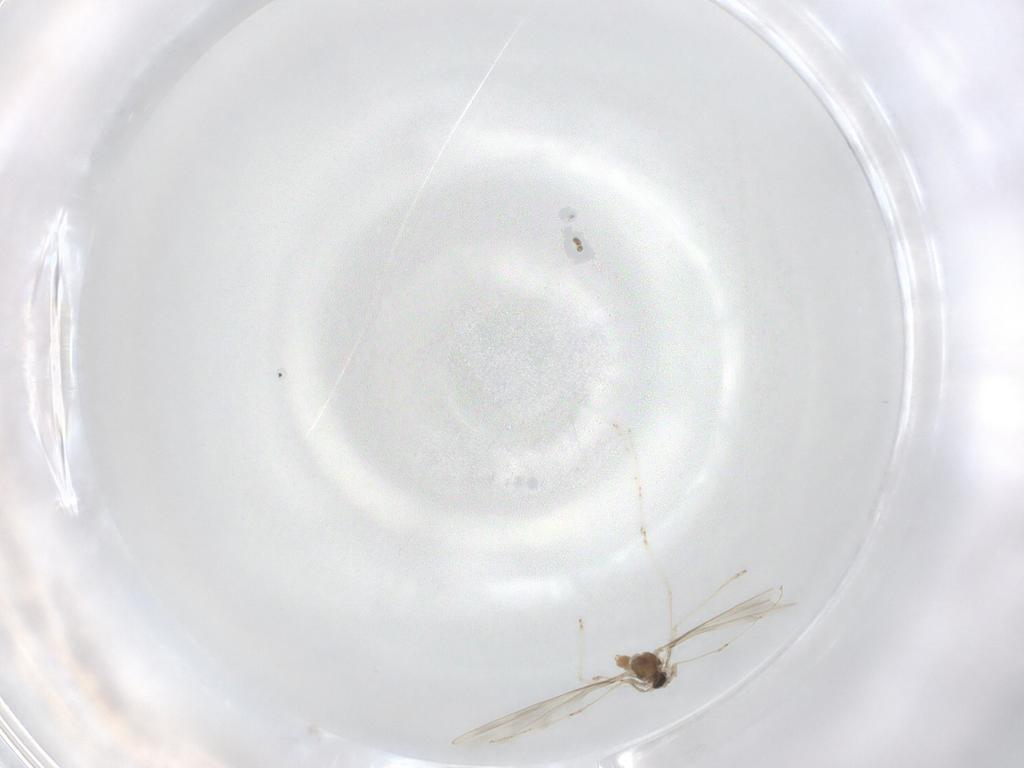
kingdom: Animalia
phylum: Arthropoda
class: Insecta
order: Diptera
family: Cecidomyiidae
